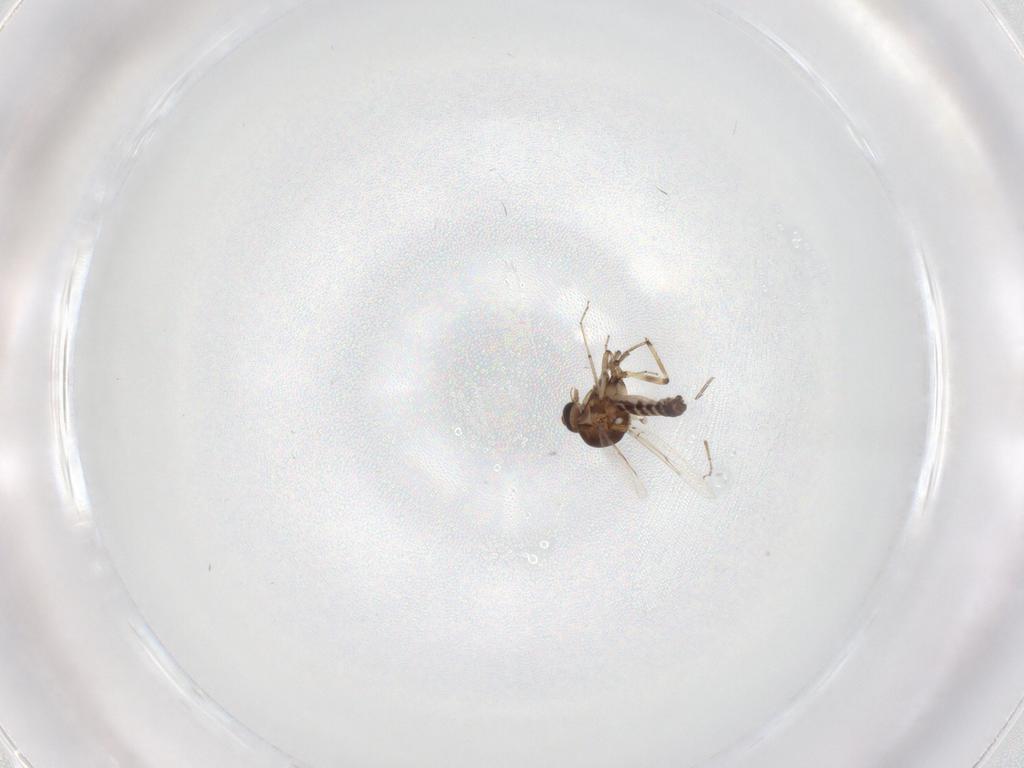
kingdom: Animalia
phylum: Arthropoda
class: Insecta
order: Diptera
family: Ceratopogonidae
